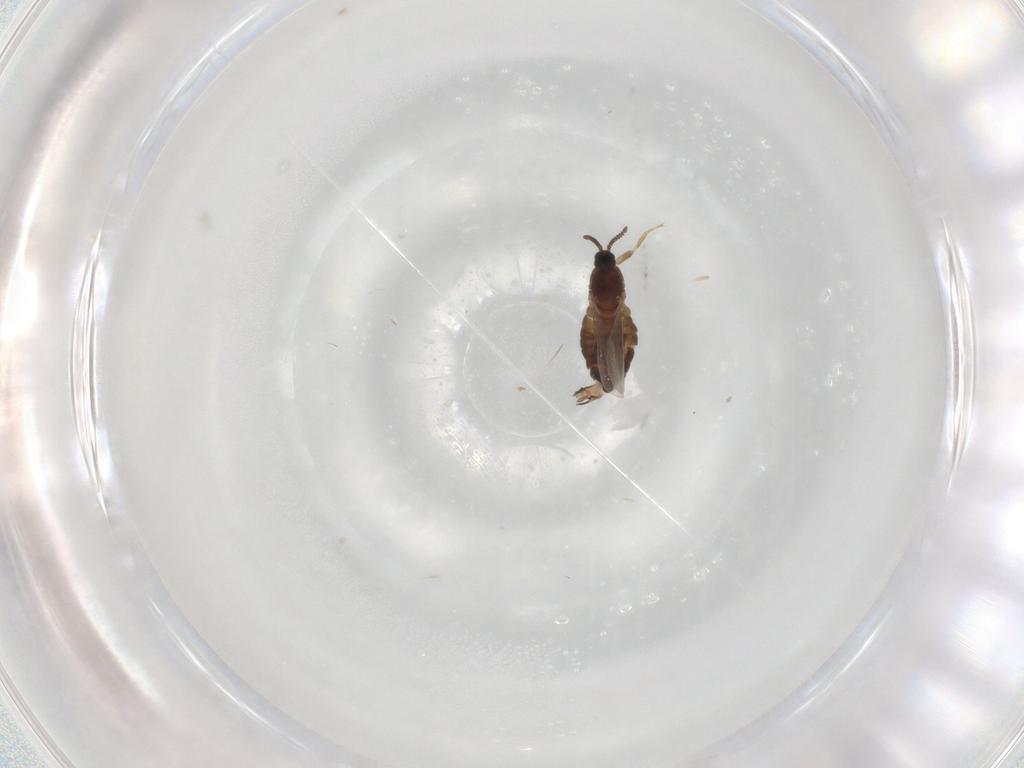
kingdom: Animalia
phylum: Arthropoda
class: Insecta
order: Diptera
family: Scatopsidae
